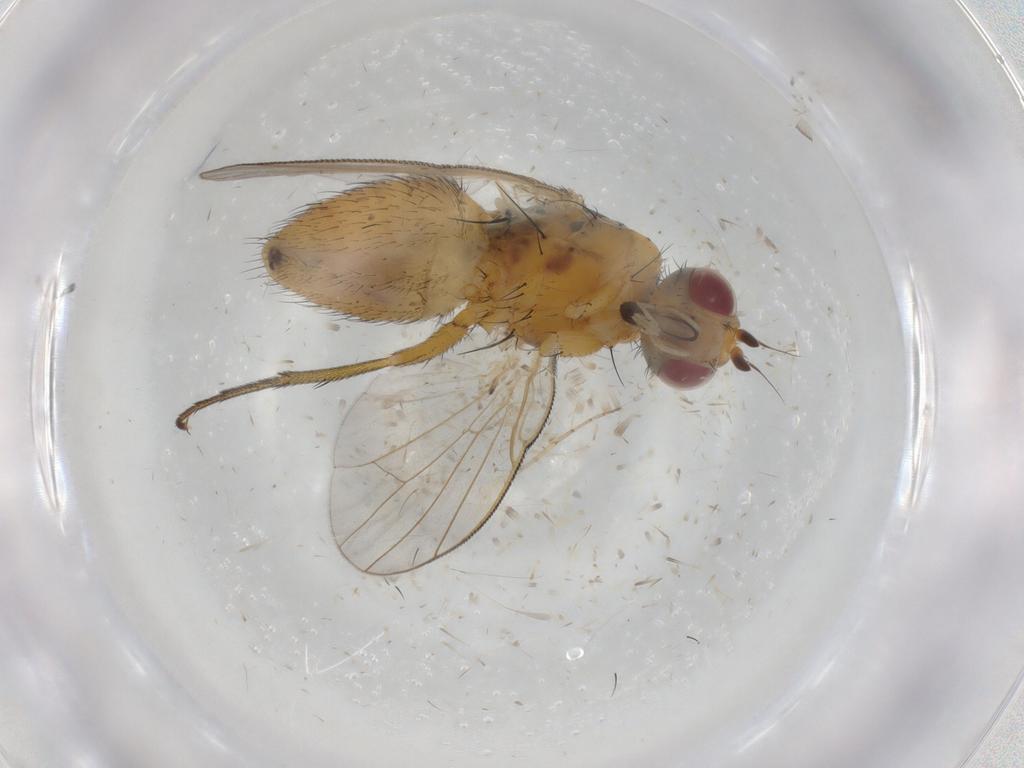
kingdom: Animalia
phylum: Arthropoda
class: Insecta
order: Diptera
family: Muscidae
